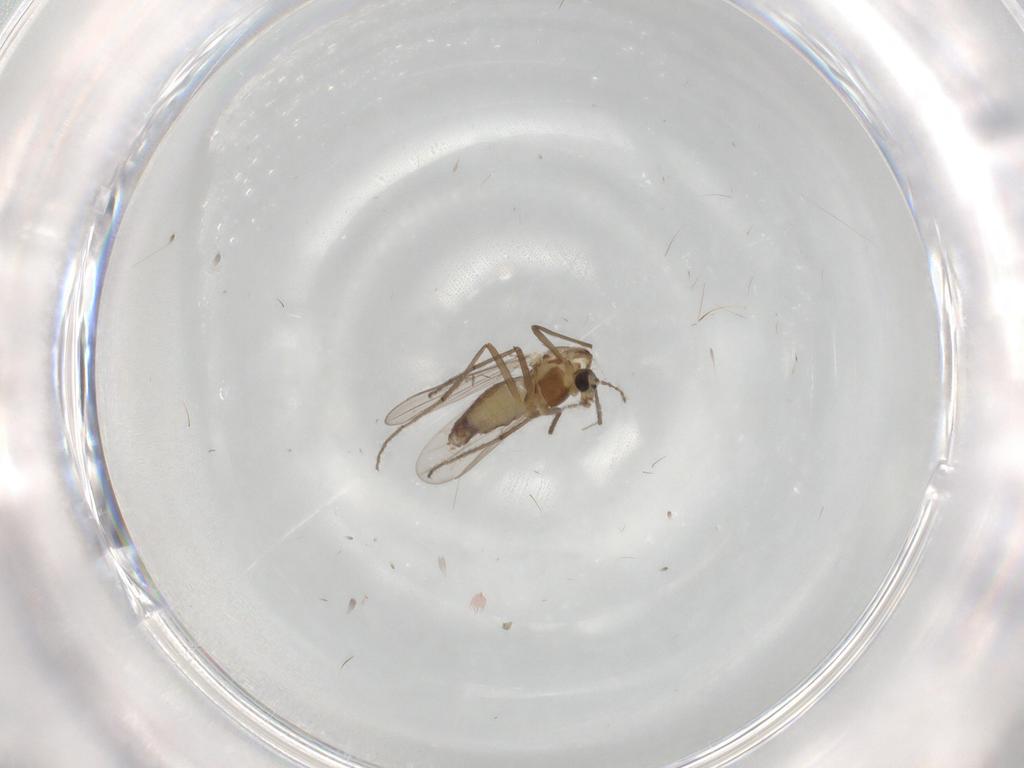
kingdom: Animalia
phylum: Arthropoda
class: Insecta
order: Diptera
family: Chironomidae
